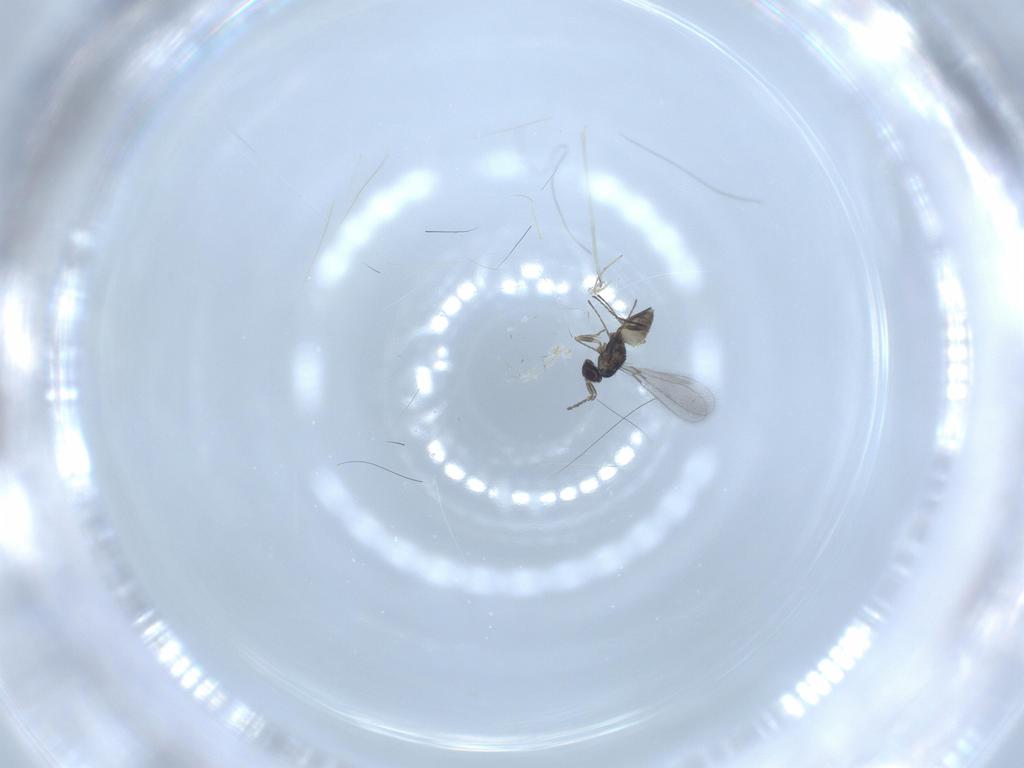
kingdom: Animalia
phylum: Arthropoda
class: Insecta
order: Hymenoptera
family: Mymaridae
